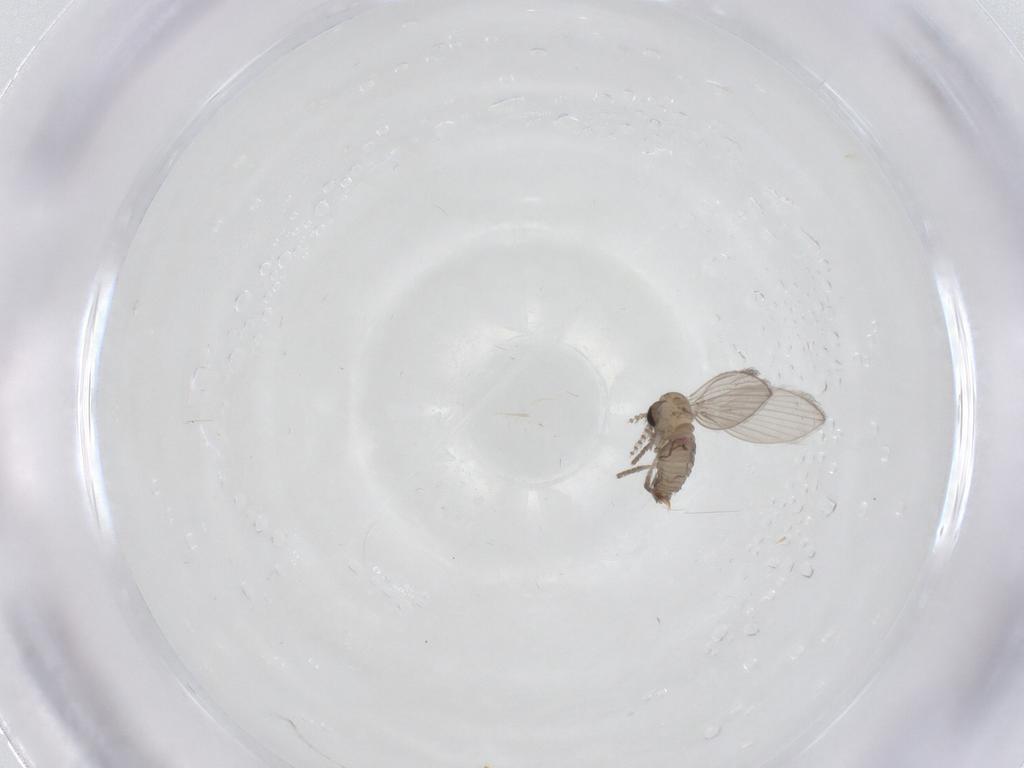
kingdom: Animalia
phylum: Arthropoda
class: Insecta
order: Diptera
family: Psychodidae
